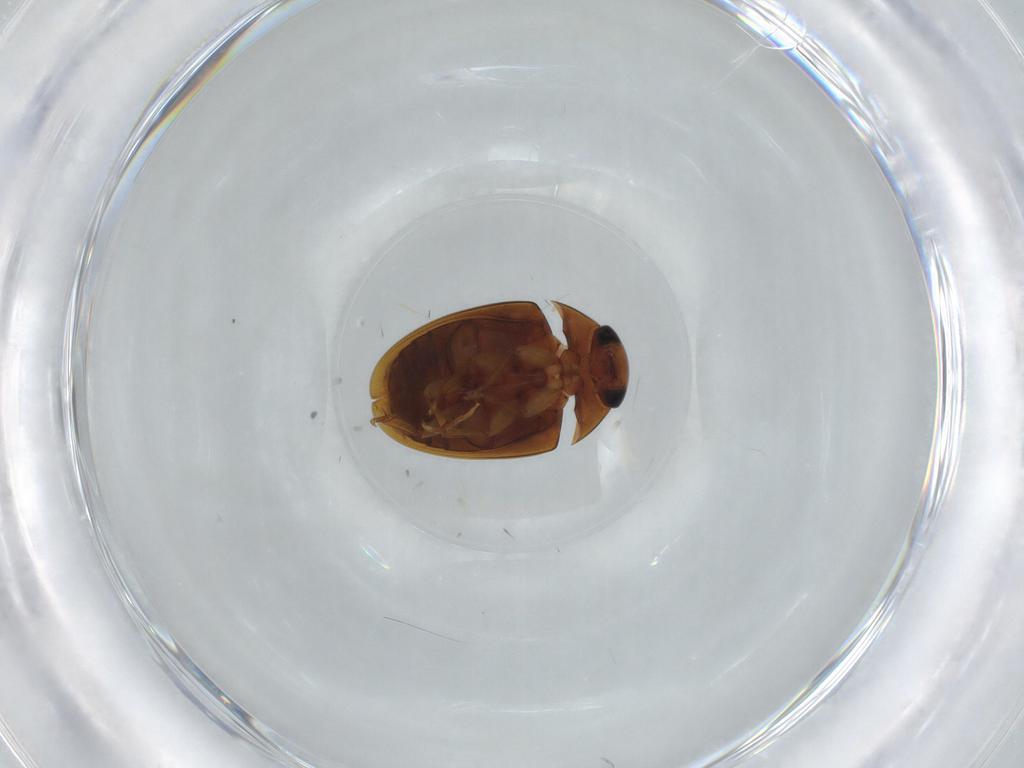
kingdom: Animalia
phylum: Arthropoda
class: Insecta
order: Coleoptera
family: Phalacridae
